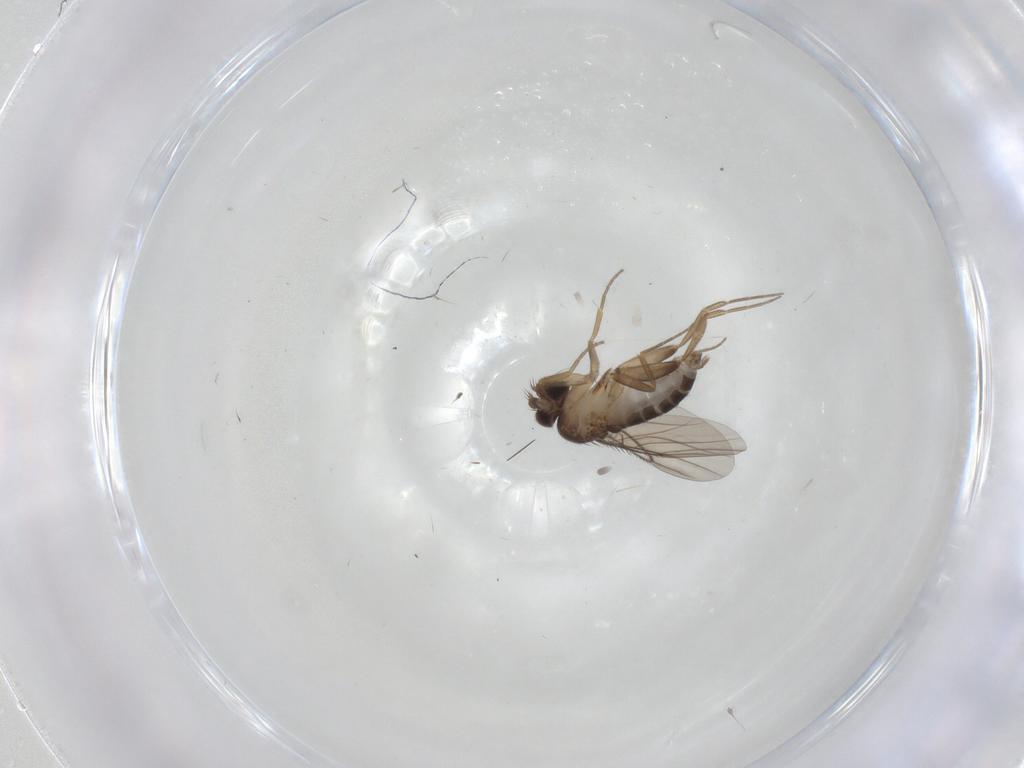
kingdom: Animalia
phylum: Arthropoda
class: Insecta
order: Diptera
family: Phoridae
